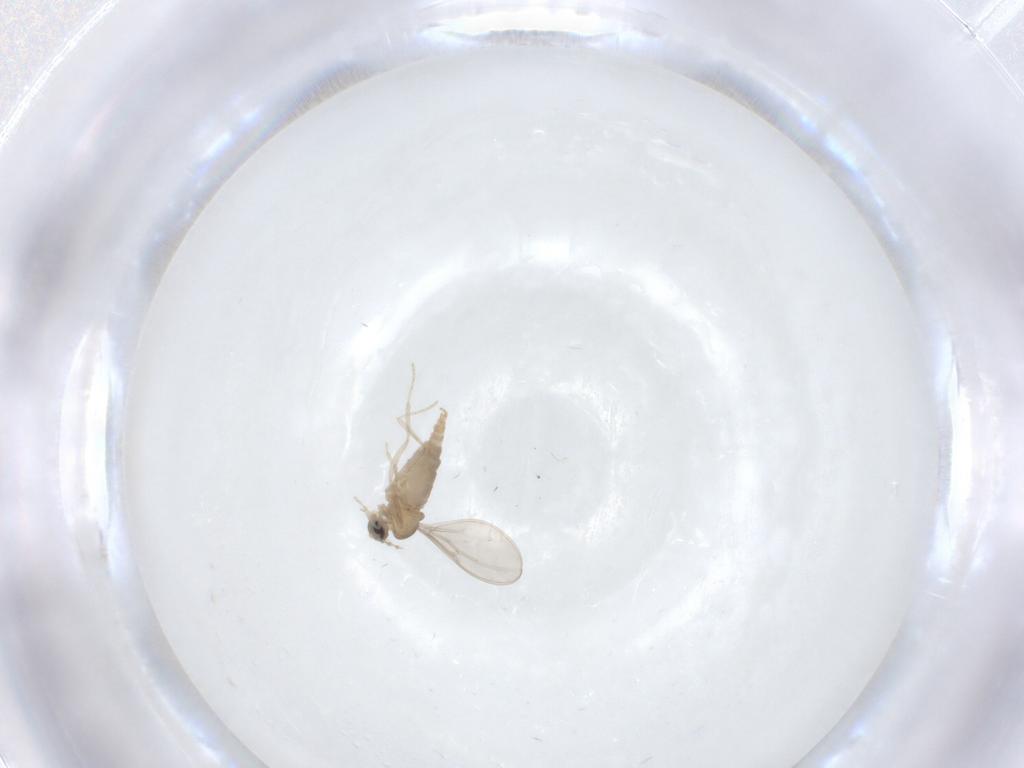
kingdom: Animalia
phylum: Arthropoda
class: Insecta
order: Diptera
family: Cecidomyiidae
